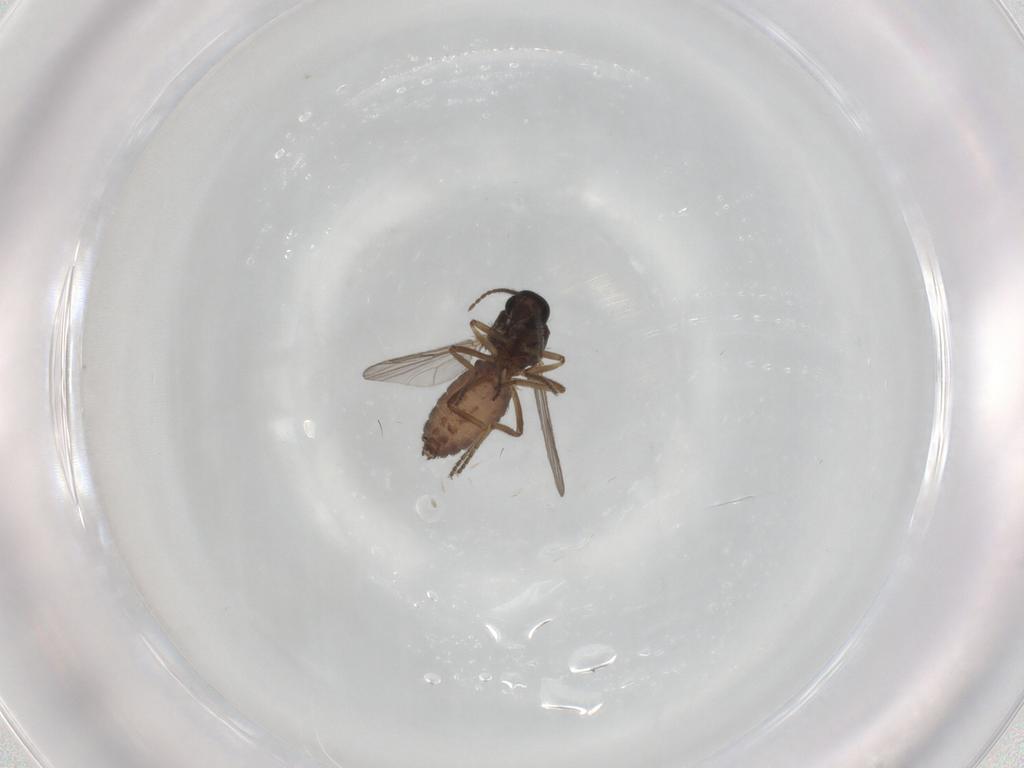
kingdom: Animalia
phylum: Arthropoda
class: Insecta
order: Diptera
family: Ceratopogonidae
